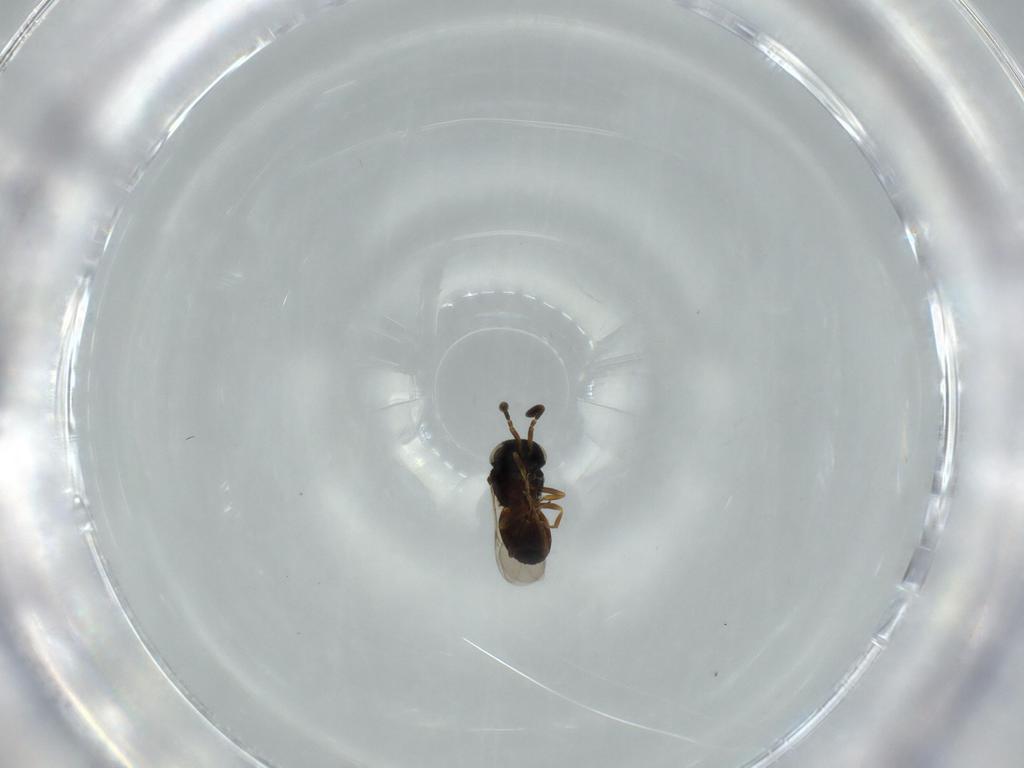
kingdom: Animalia
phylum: Arthropoda
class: Insecta
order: Hymenoptera
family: Scelionidae
